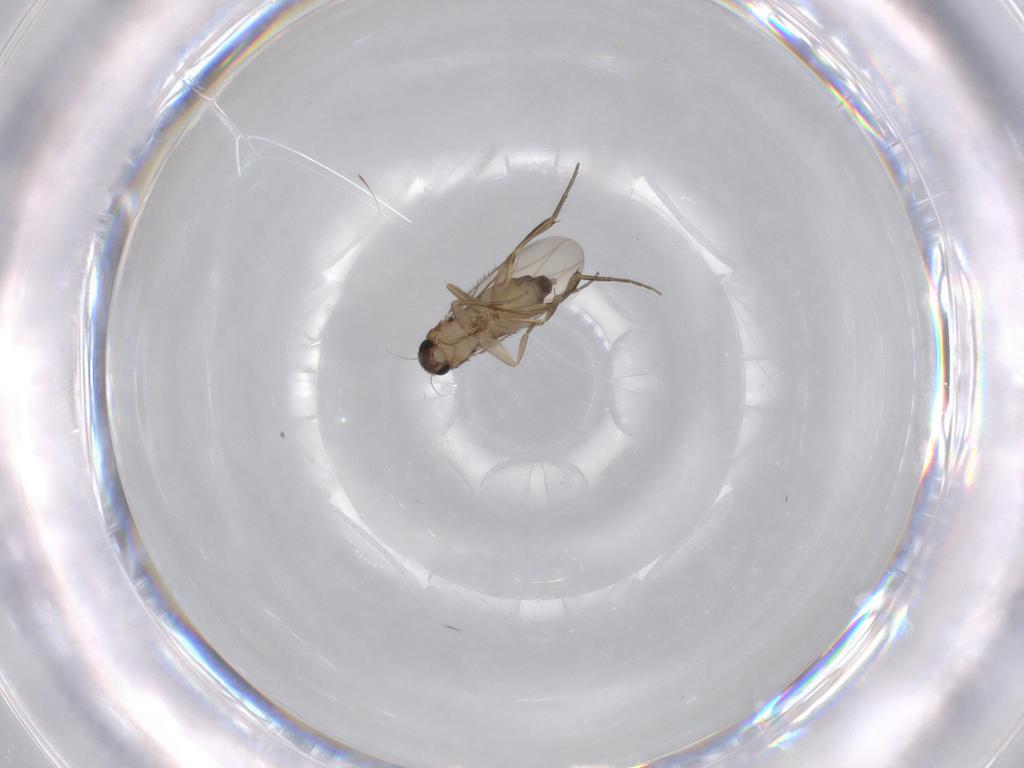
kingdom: Animalia
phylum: Arthropoda
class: Insecta
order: Diptera
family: Phoridae
